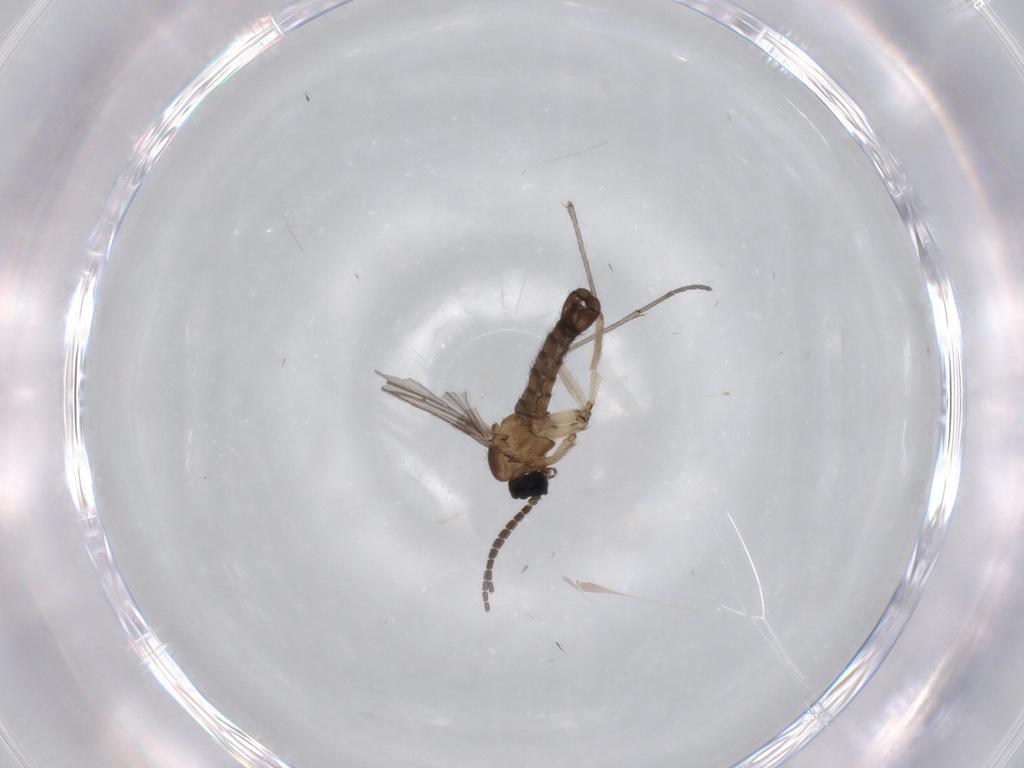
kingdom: Animalia
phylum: Arthropoda
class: Insecta
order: Diptera
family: Sciaridae
